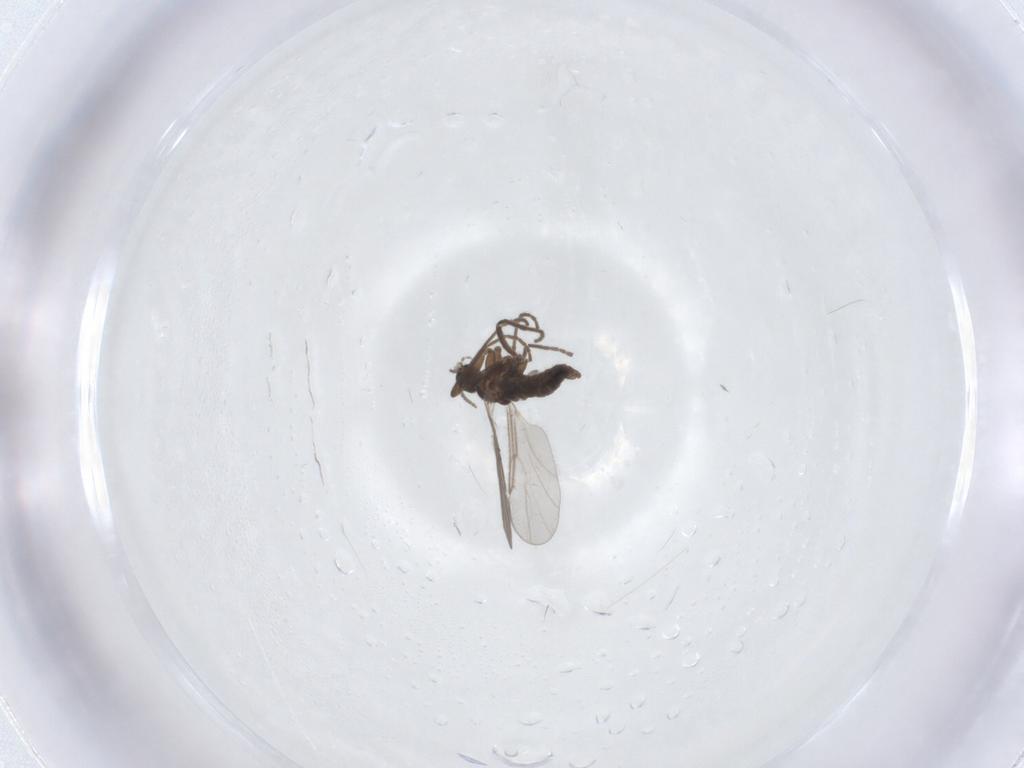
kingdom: Animalia
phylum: Arthropoda
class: Insecta
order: Diptera
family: Cecidomyiidae
